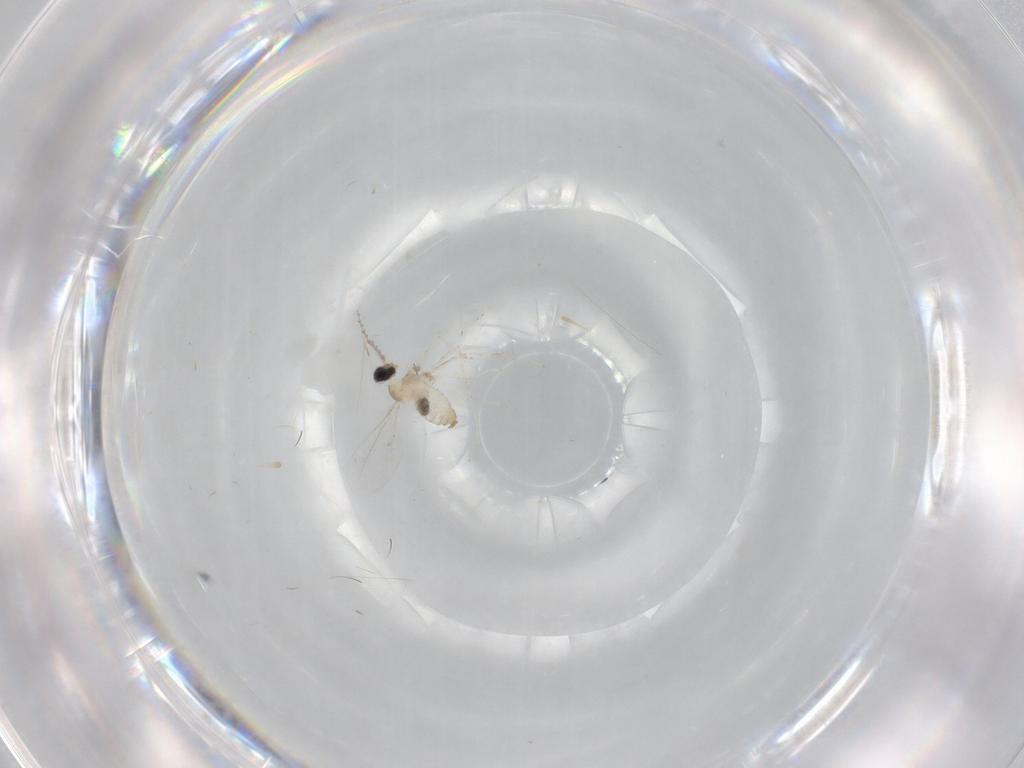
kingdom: Animalia
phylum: Arthropoda
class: Insecta
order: Diptera
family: Cecidomyiidae
